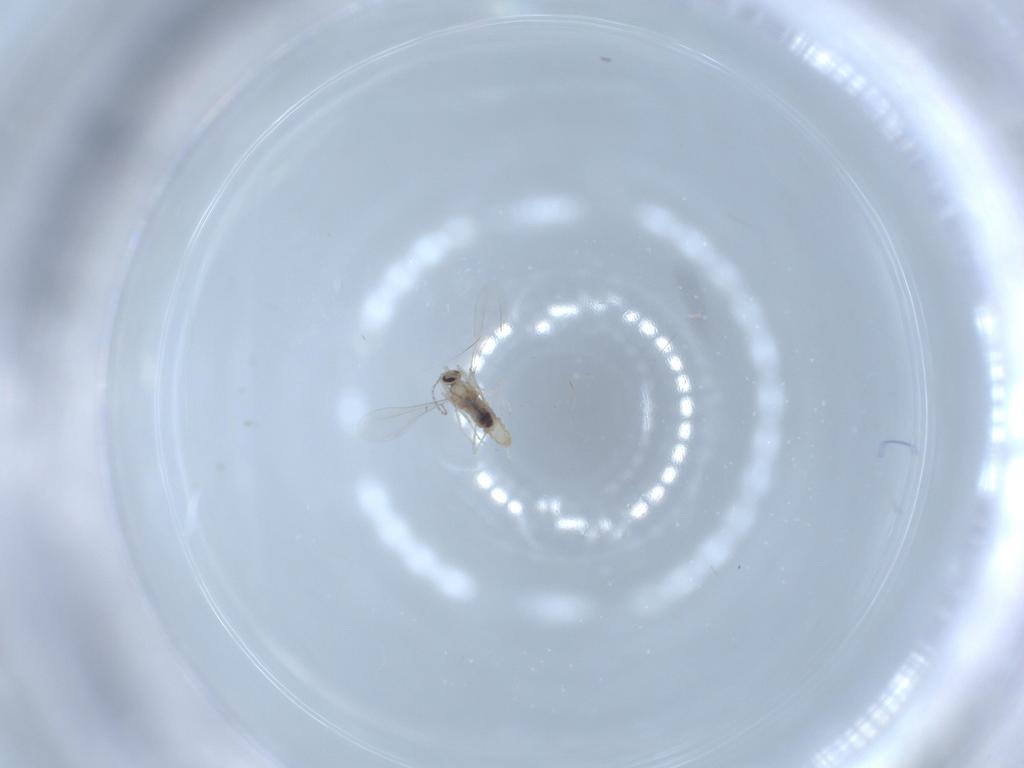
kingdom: Animalia
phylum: Arthropoda
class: Insecta
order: Diptera
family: Cecidomyiidae
